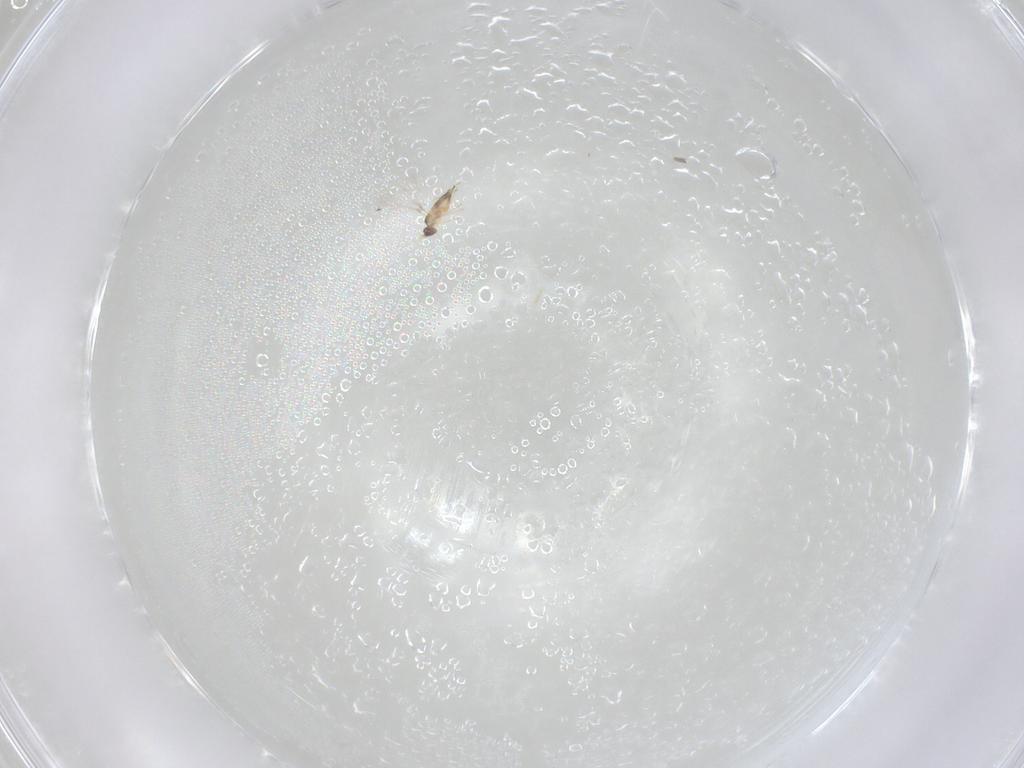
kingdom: Animalia
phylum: Arthropoda
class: Insecta
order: Hymenoptera
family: Mymaridae
